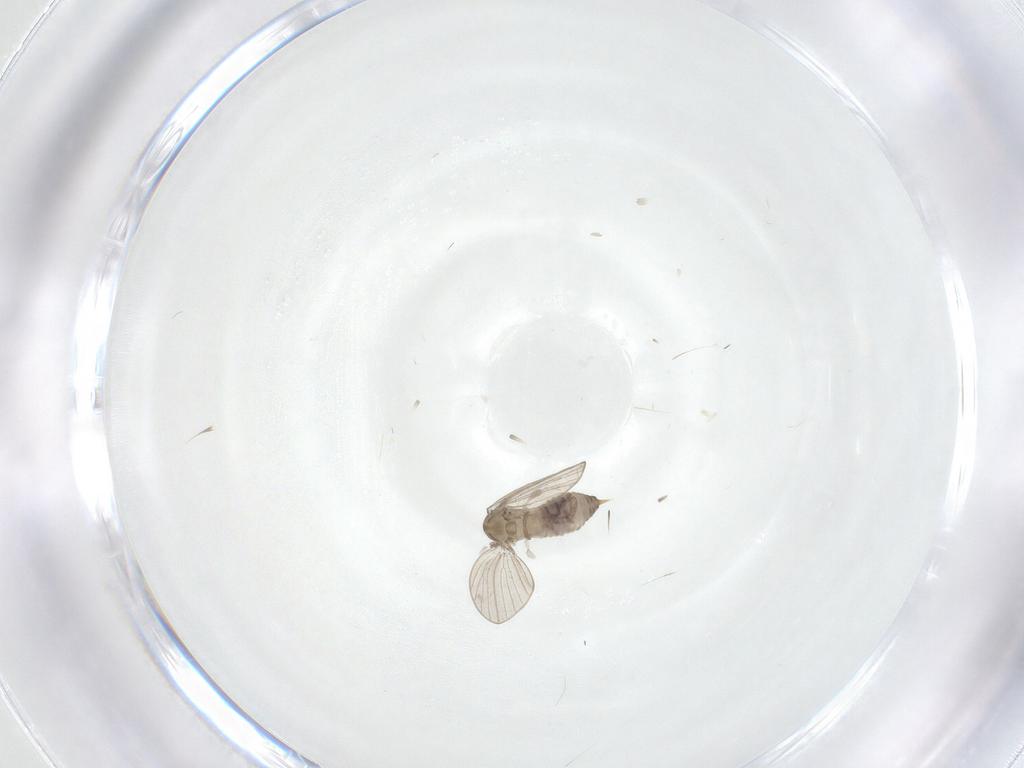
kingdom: Animalia
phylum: Arthropoda
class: Insecta
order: Diptera
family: Psychodidae
